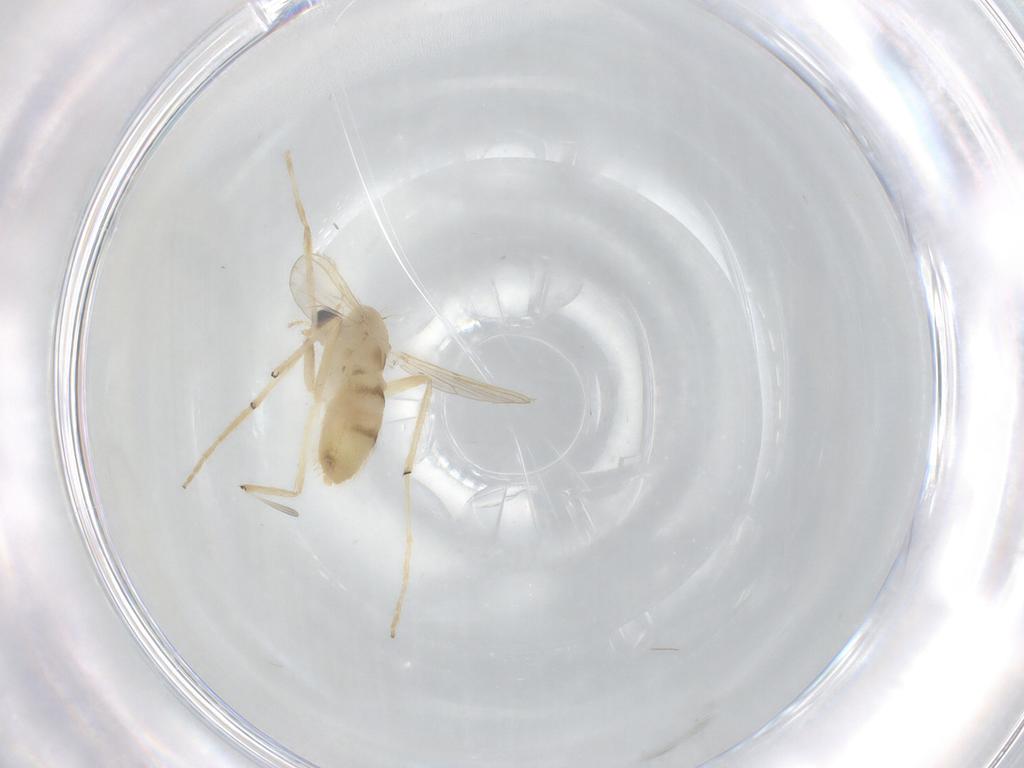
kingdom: Animalia
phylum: Arthropoda
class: Insecta
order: Diptera
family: Chironomidae
